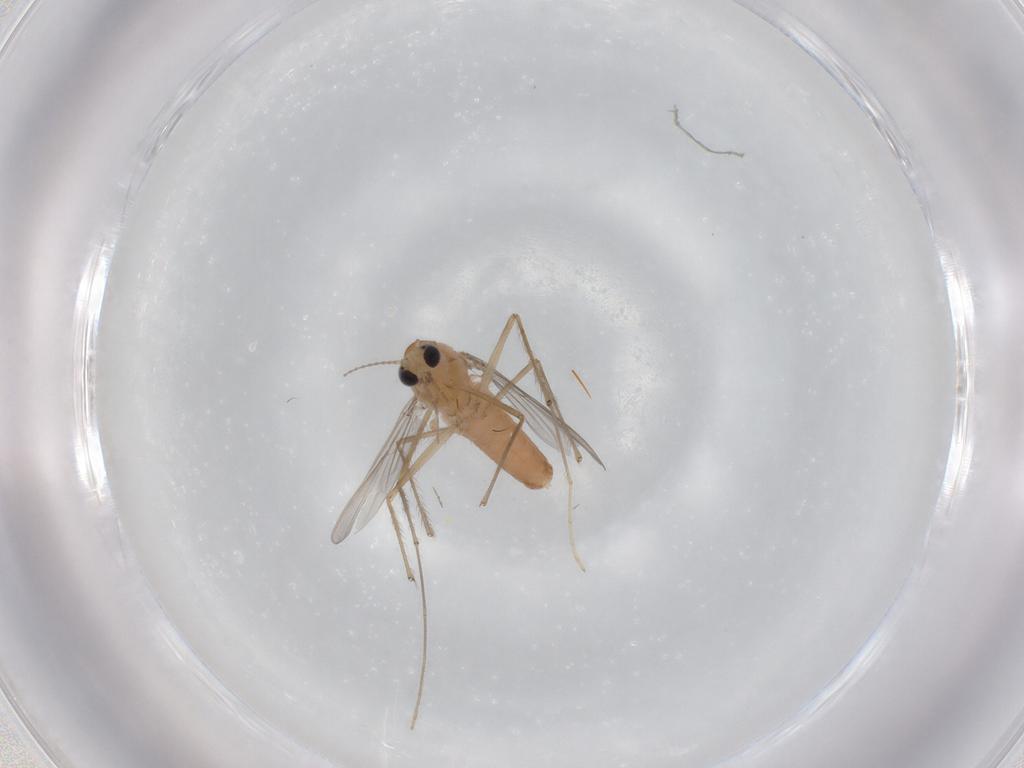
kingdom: Animalia
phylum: Arthropoda
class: Insecta
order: Diptera
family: Chironomidae
